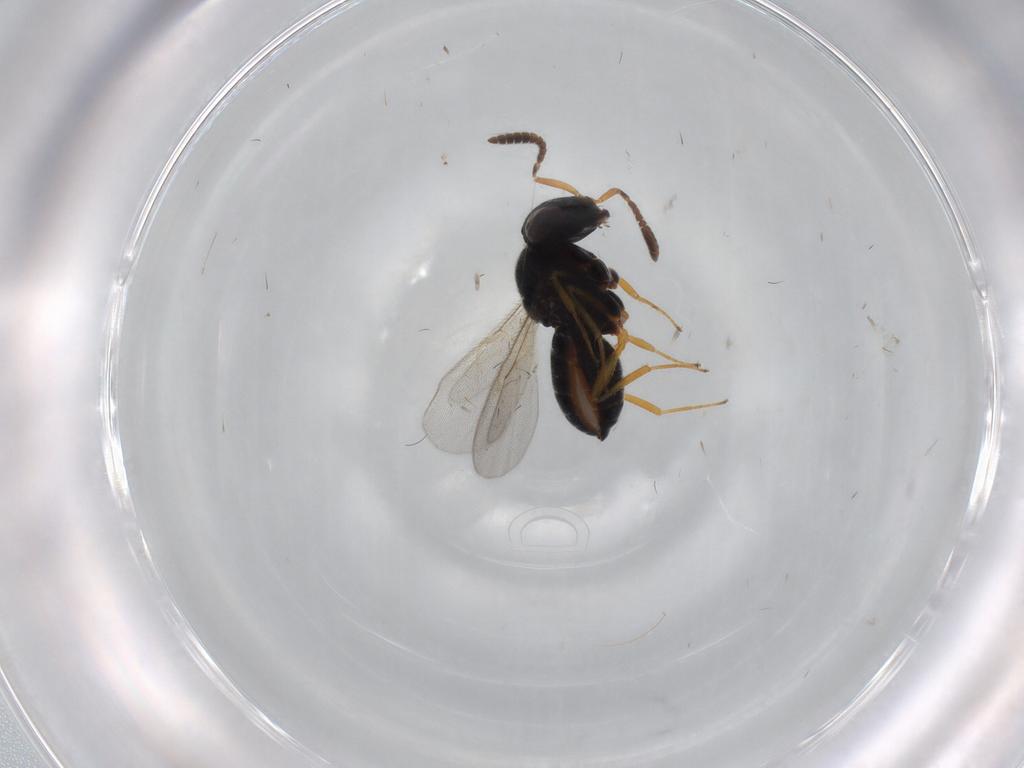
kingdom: Animalia
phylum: Arthropoda
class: Insecta
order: Hymenoptera
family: Scelionidae
